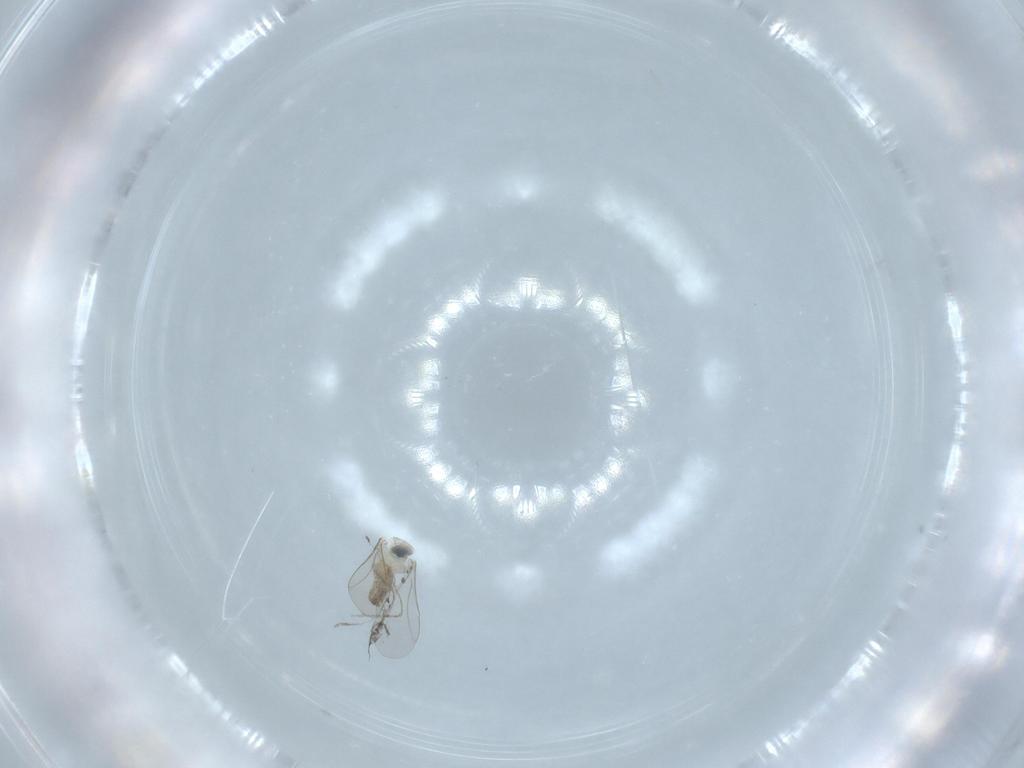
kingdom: Animalia
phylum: Arthropoda
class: Insecta
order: Diptera
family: Cecidomyiidae
